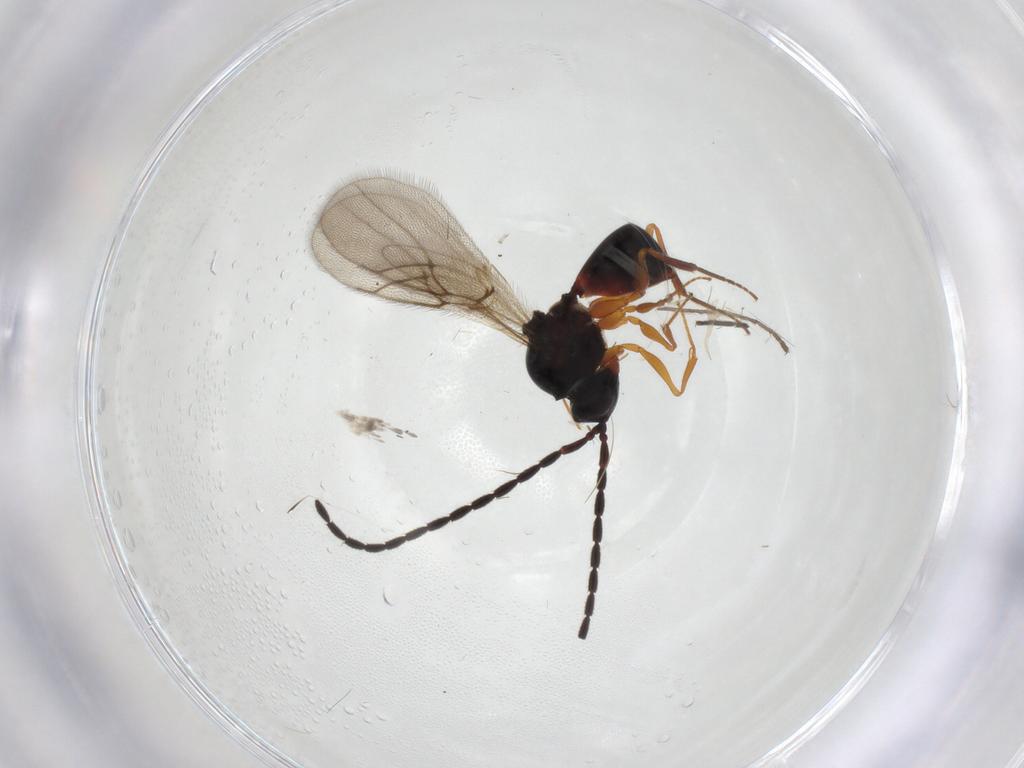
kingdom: Animalia
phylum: Arthropoda
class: Insecta
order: Hymenoptera
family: Figitidae
